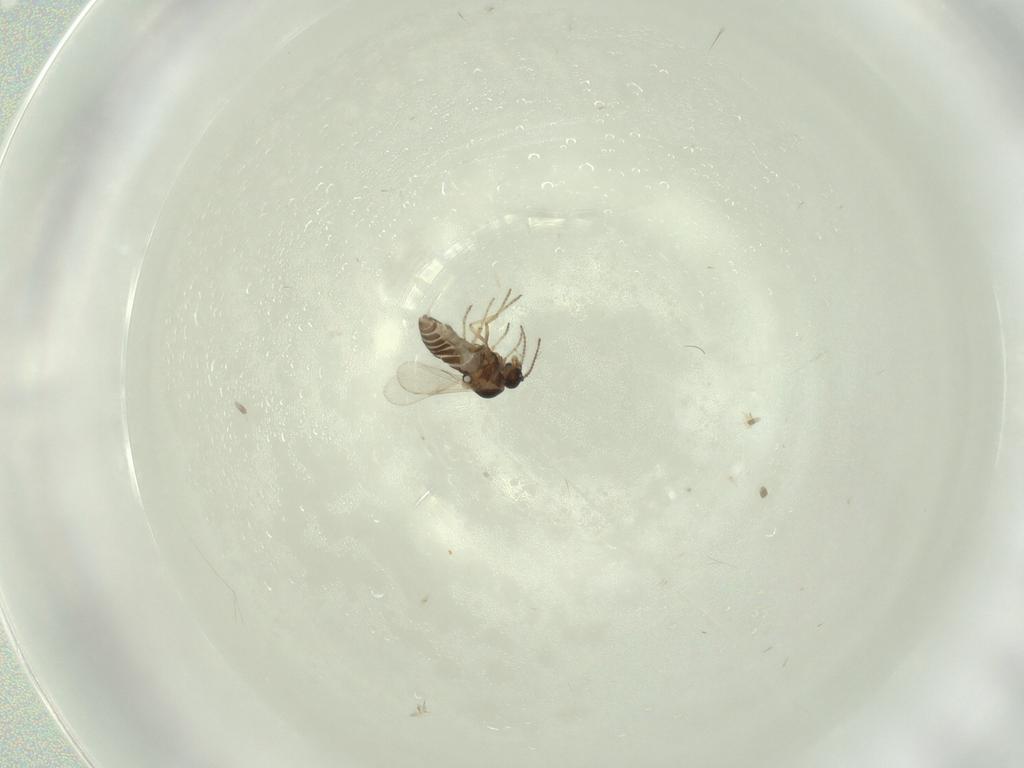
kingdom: Animalia
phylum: Arthropoda
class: Insecta
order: Diptera
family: Ceratopogonidae
